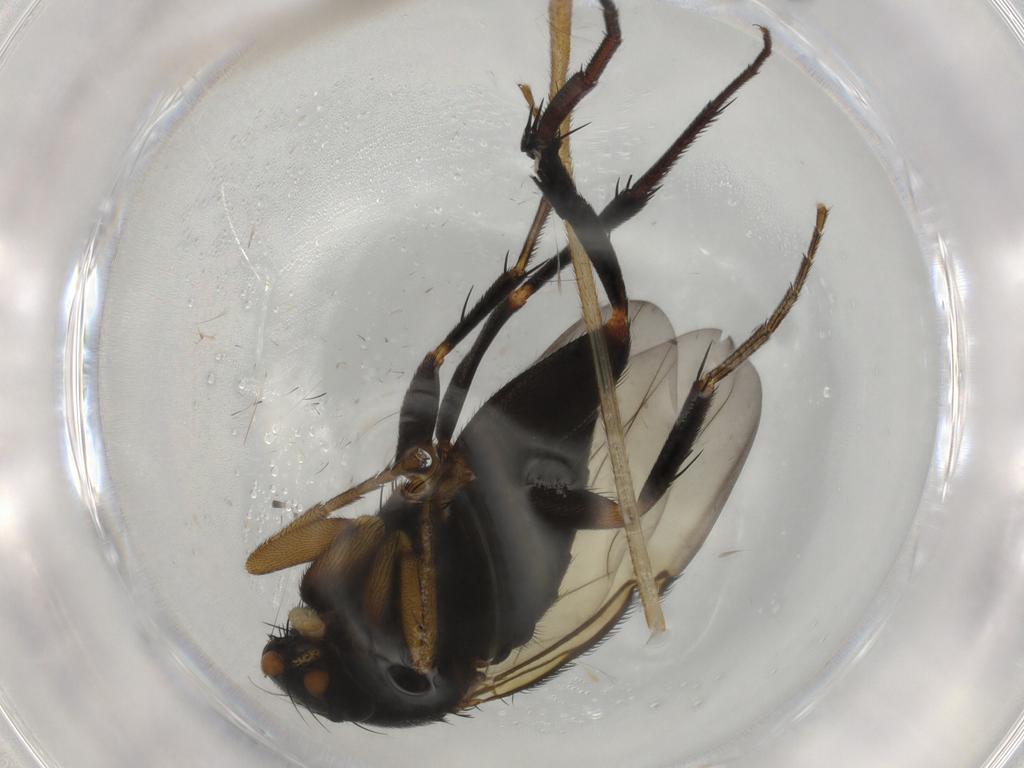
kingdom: Animalia
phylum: Arthropoda
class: Insecta
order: Diptera
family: Phoridae
